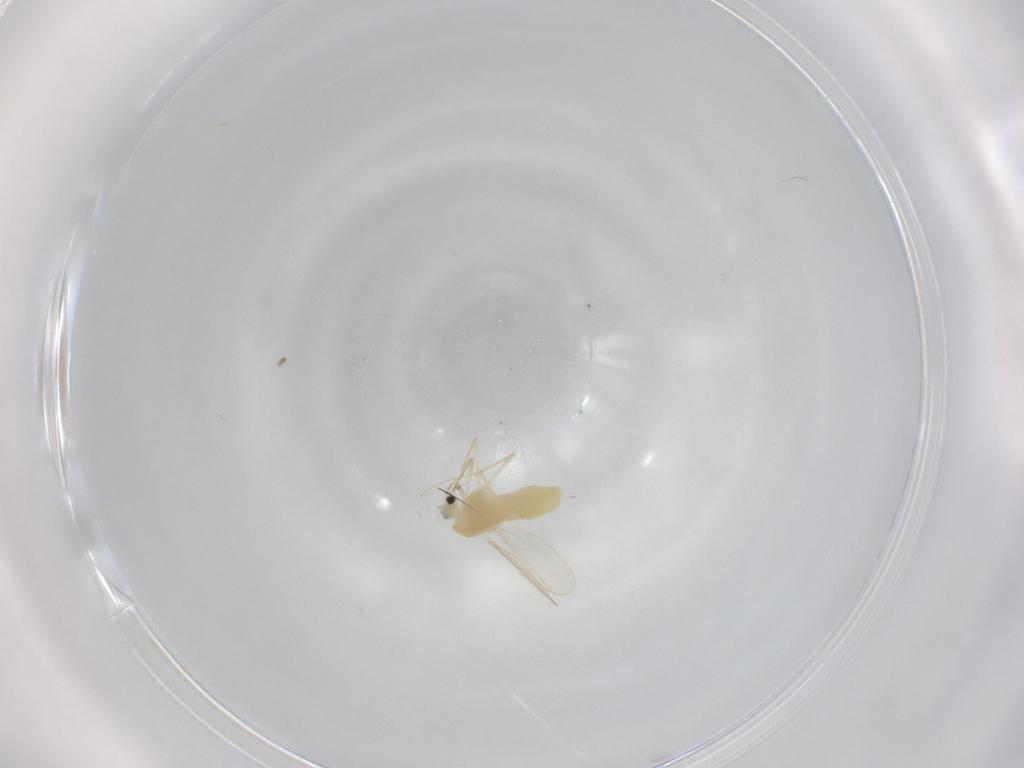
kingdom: Animalia
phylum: Arthropoda
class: Insecta
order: Diptera
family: Chironomidae
